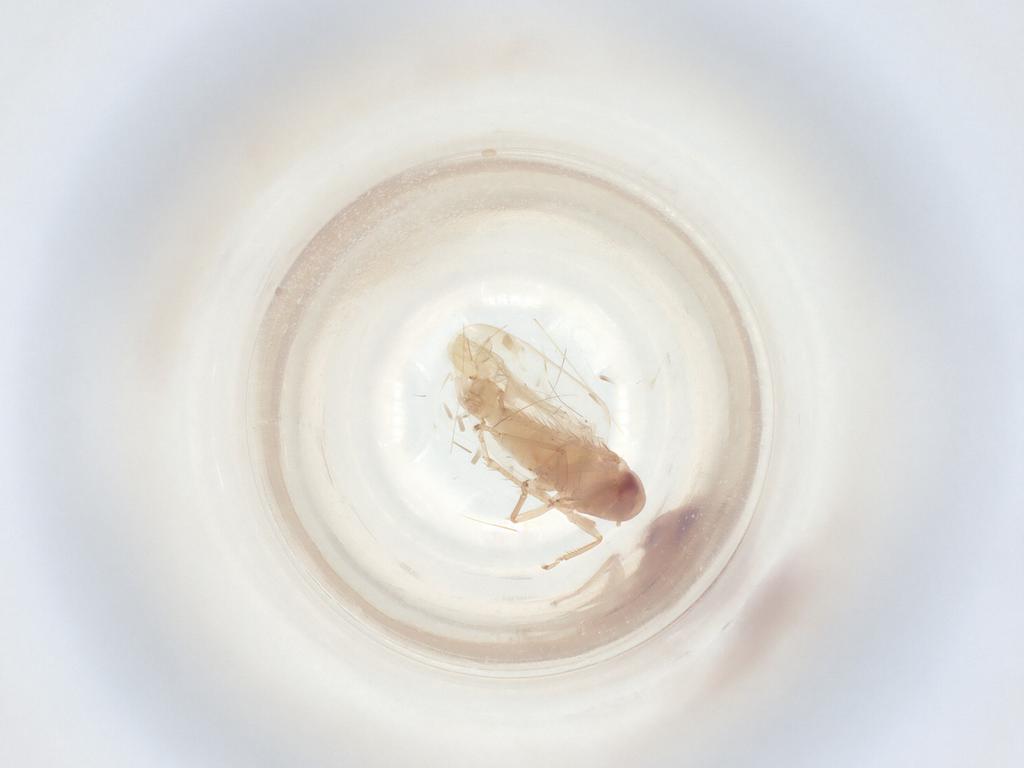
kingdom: Animalia
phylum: Arthropoda
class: Insecta
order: Hemiptera
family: Cicadellidae
